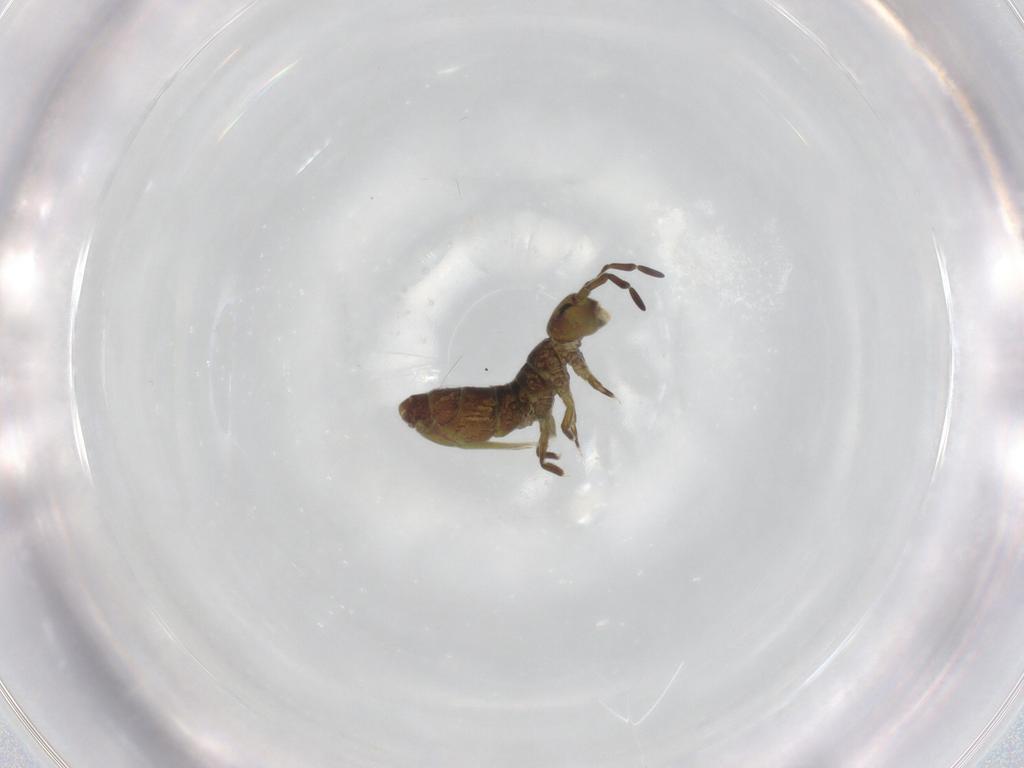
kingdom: Animalia
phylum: Arthropoda
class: Collembola
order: Entomobryomorpha
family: Isotomidae
